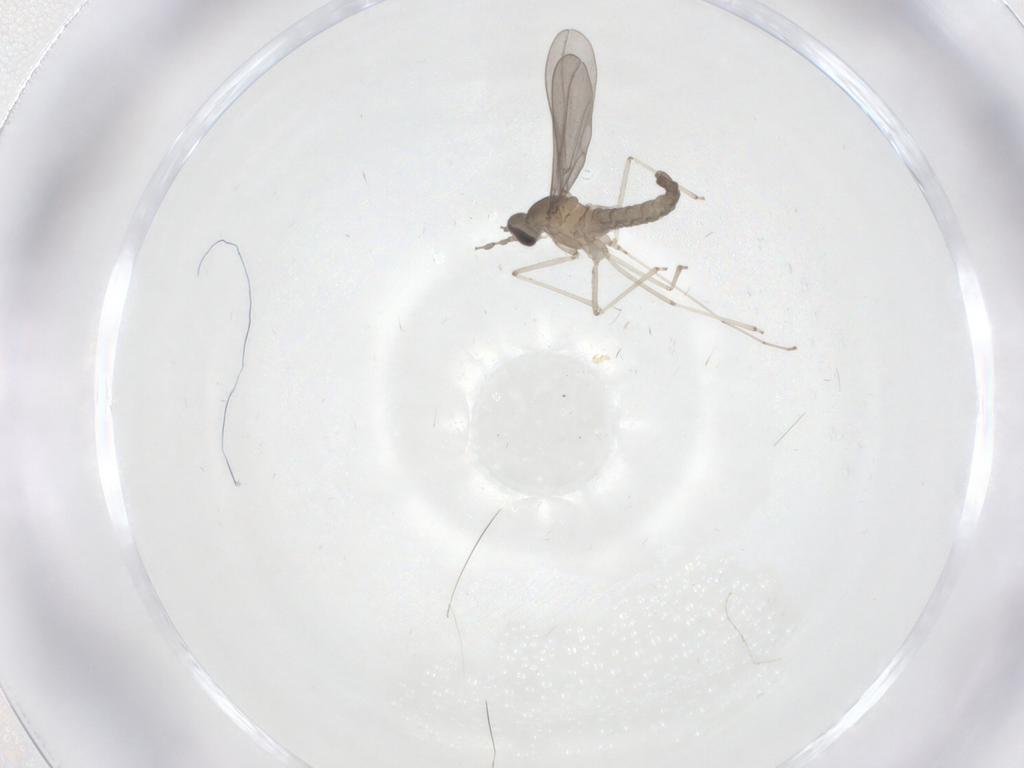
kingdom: Animalia
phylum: Arthropoda
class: Insecta
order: Diptera
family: Cecidomyiidae
